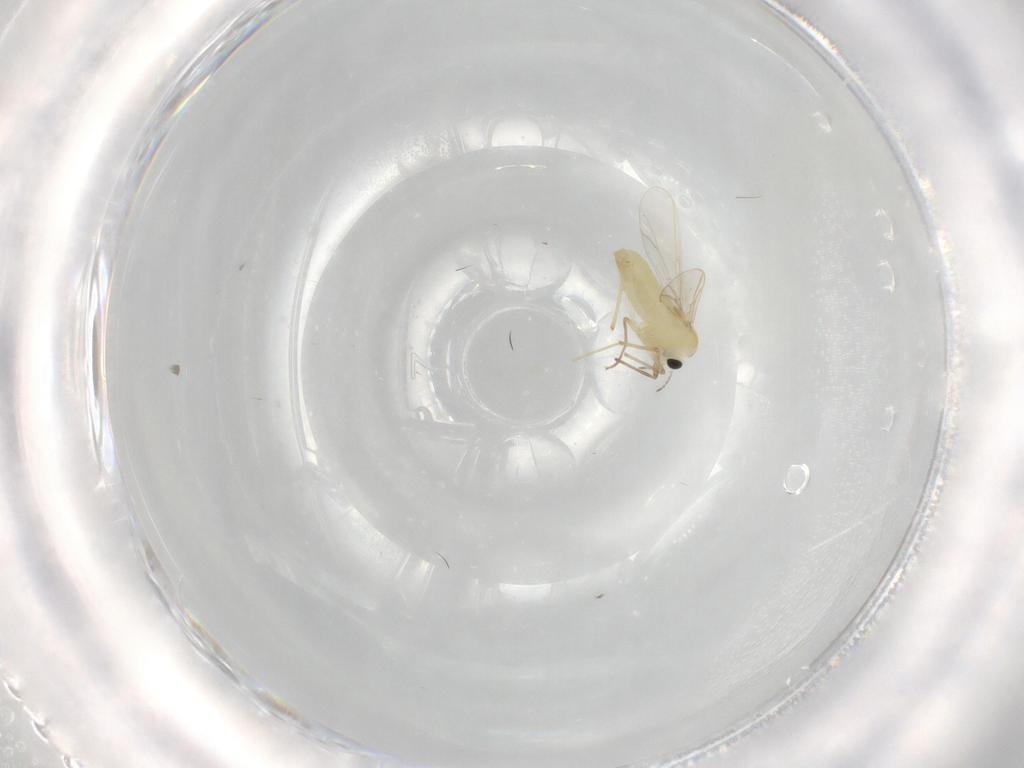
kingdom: Animalia
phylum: Arthropoda
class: Insecta
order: Diptera
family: Chironomidae
